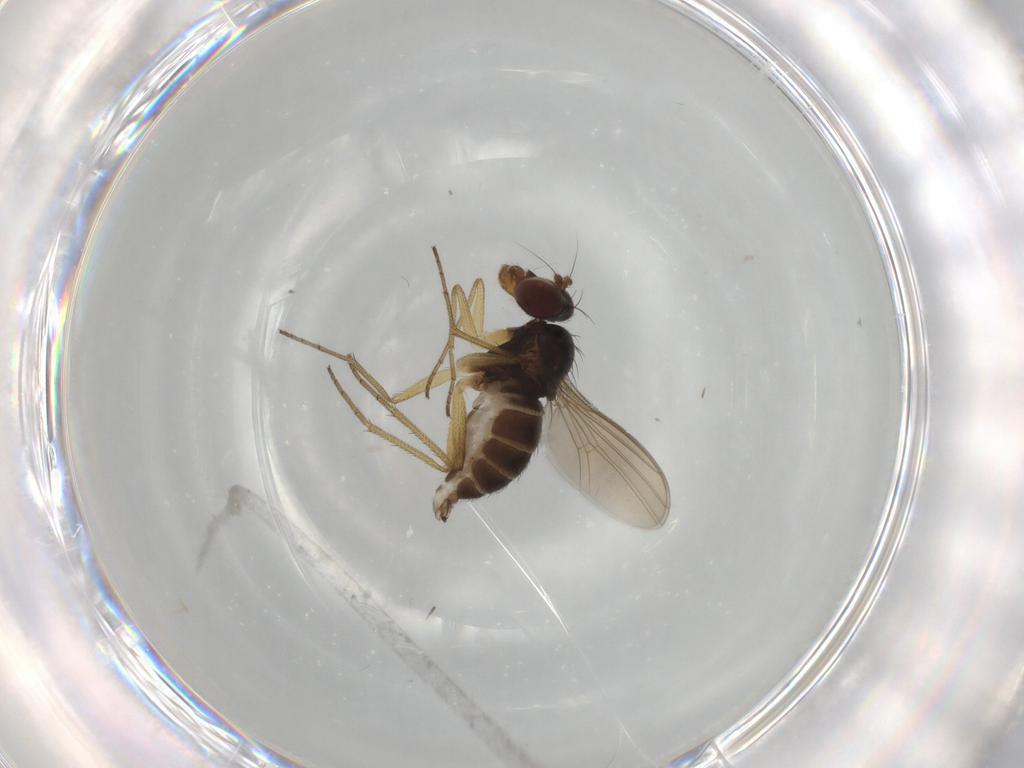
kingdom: Animalia
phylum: Arthropoda
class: Insecta
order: Diptera
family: Dolichopodidae
